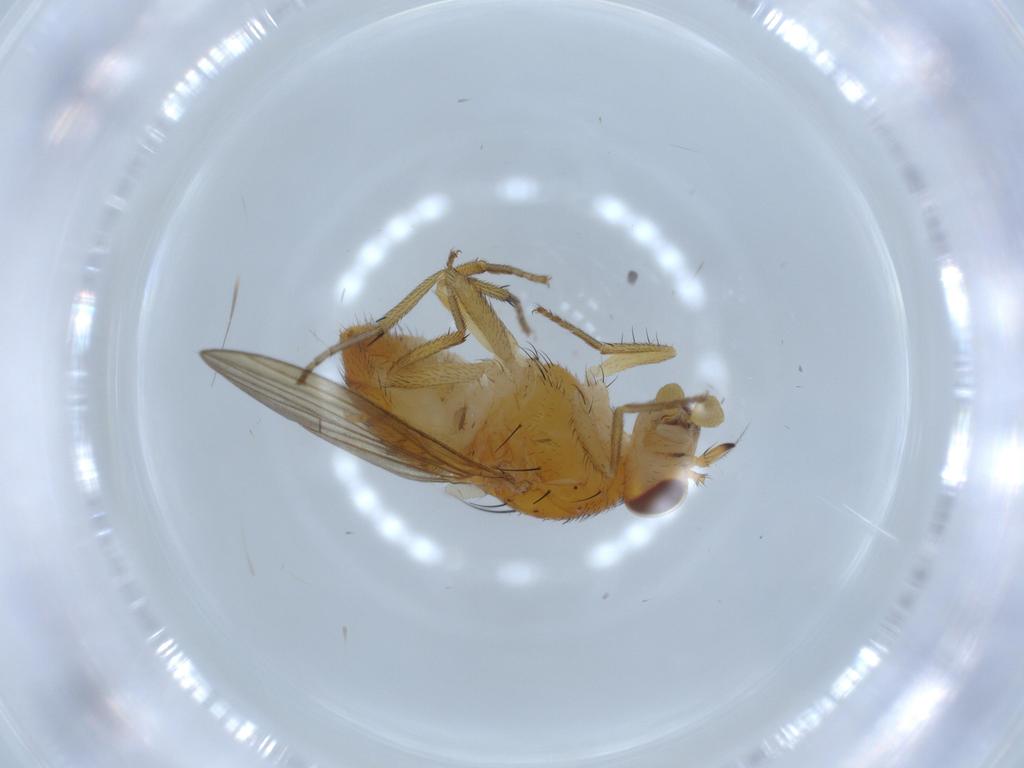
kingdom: Animalia
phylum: Arthropoda
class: Insecta
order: Diptera
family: Lauxaniidae
